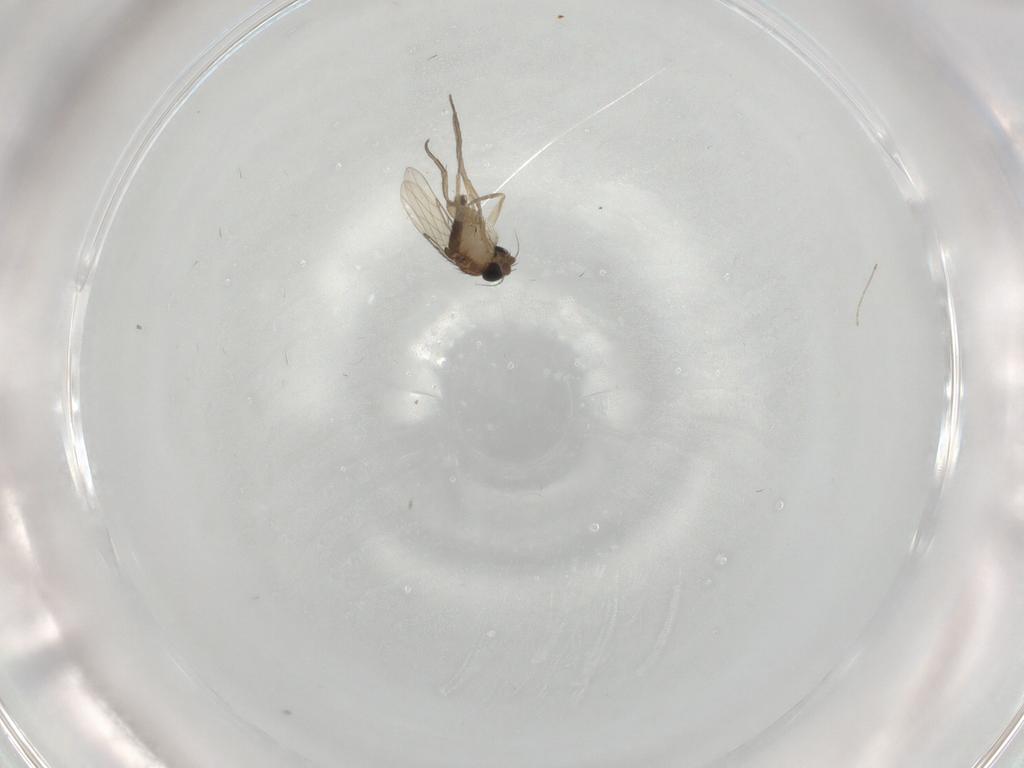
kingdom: Animalia
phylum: Arthropoda
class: Insecta
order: Diptera
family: Phoridae
